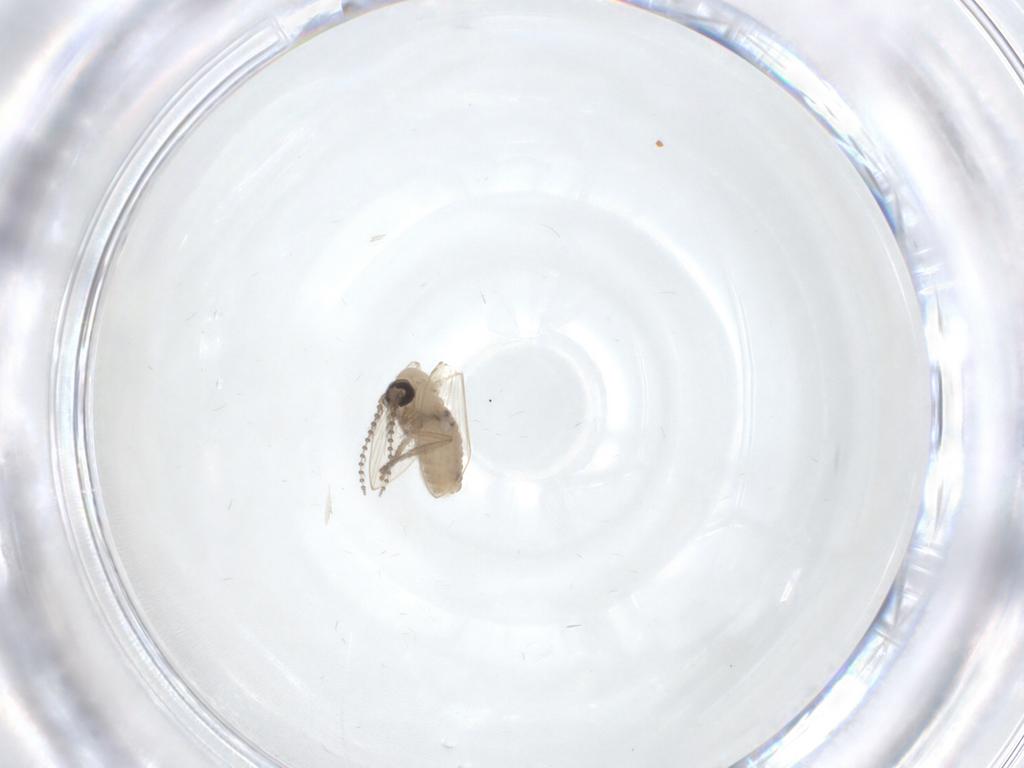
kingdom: Animalia
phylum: Arthropoda
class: Insecta
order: Diptera
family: Psychodidae
